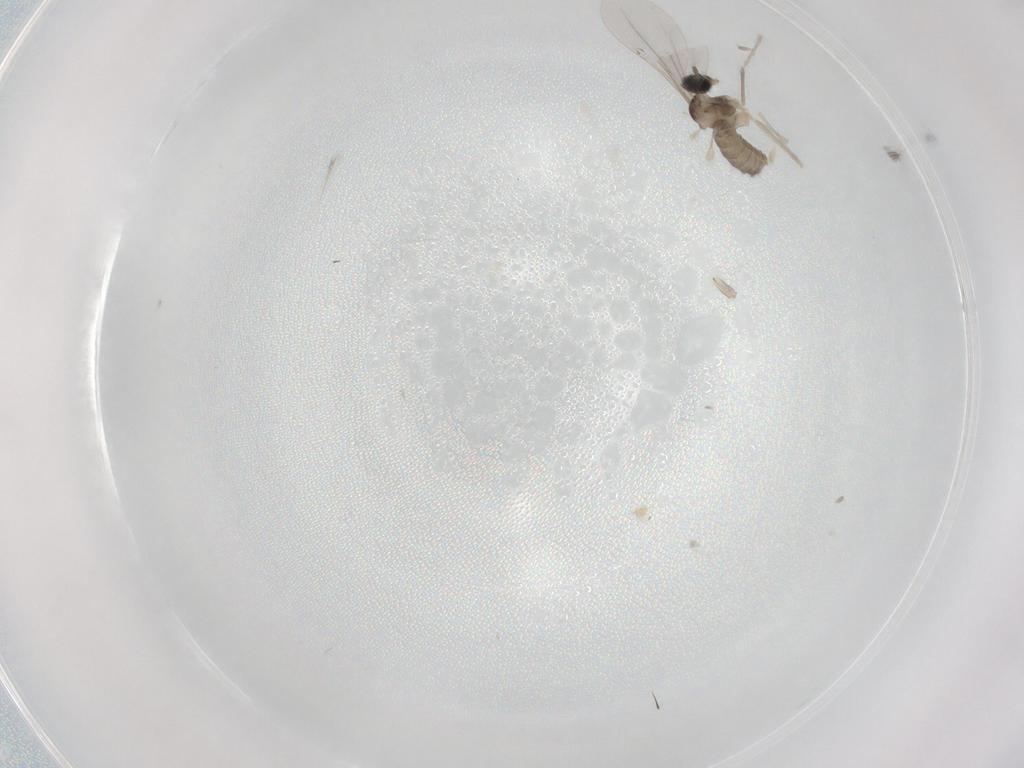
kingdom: Animalia
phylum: Arthropoda
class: Insecta
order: Diptera
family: Cecidomyiidae
